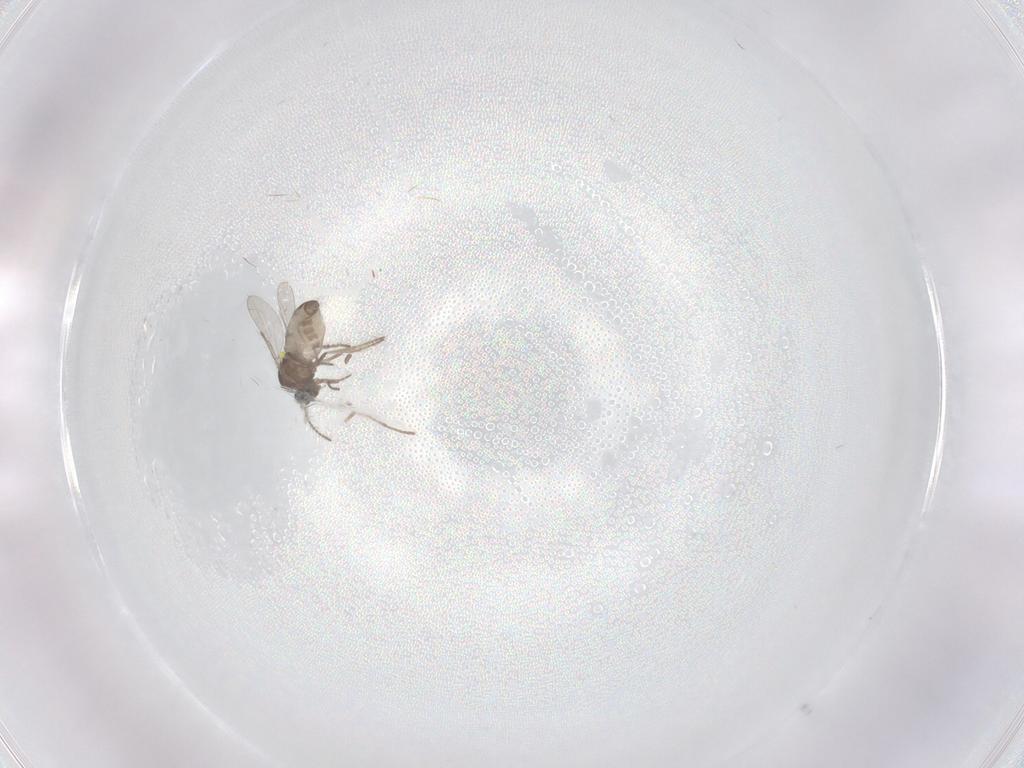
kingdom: Animalia
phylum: Arthropoda
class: Insecta
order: Diptera
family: Ceratopogonidae
